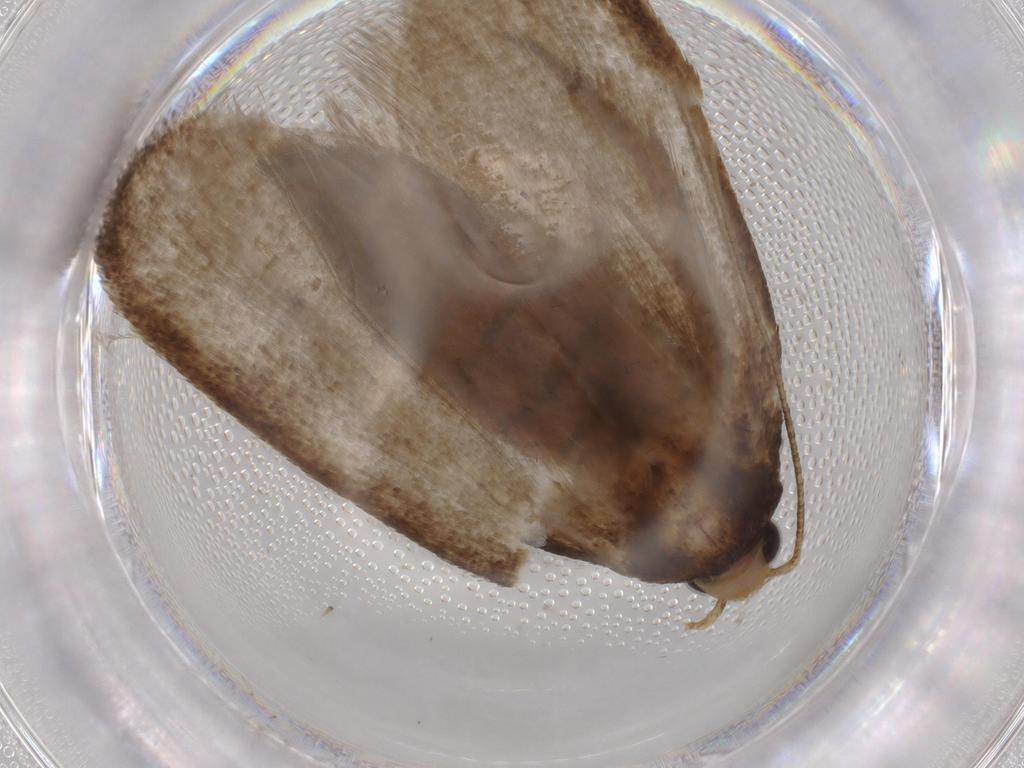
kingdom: Animalia
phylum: Arthropoda
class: Insecta
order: Lepidoptera
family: Oecophoridae
